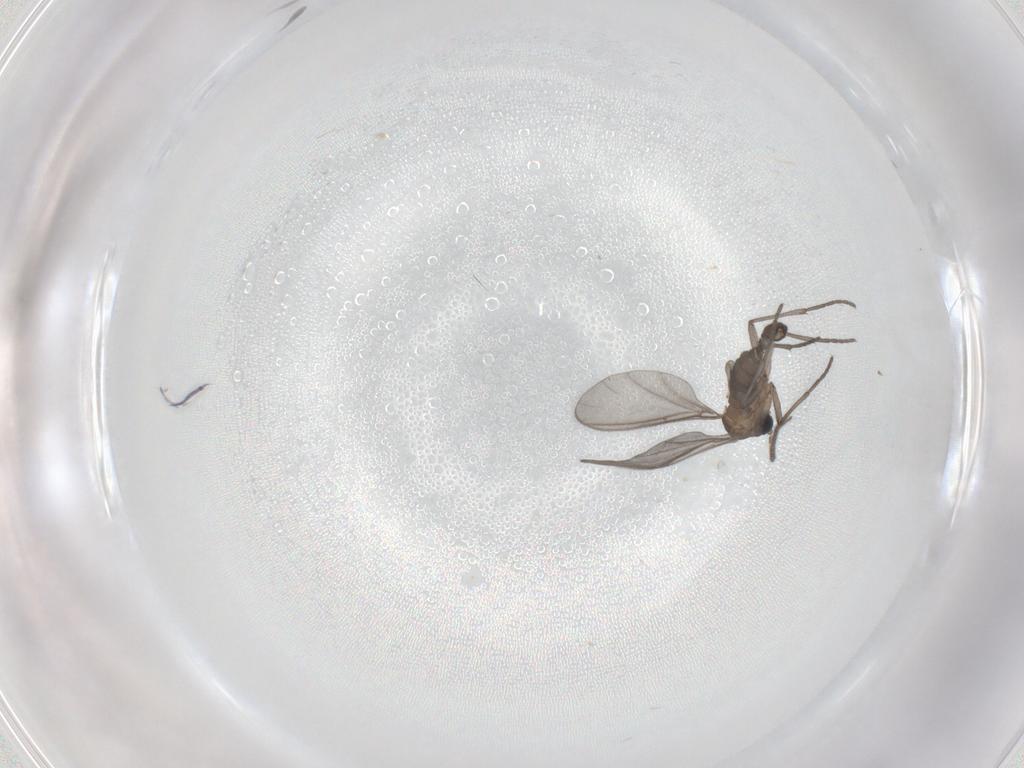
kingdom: Animalia
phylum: Arthropoda
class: Insecta
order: Diptera
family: Sciaridae
